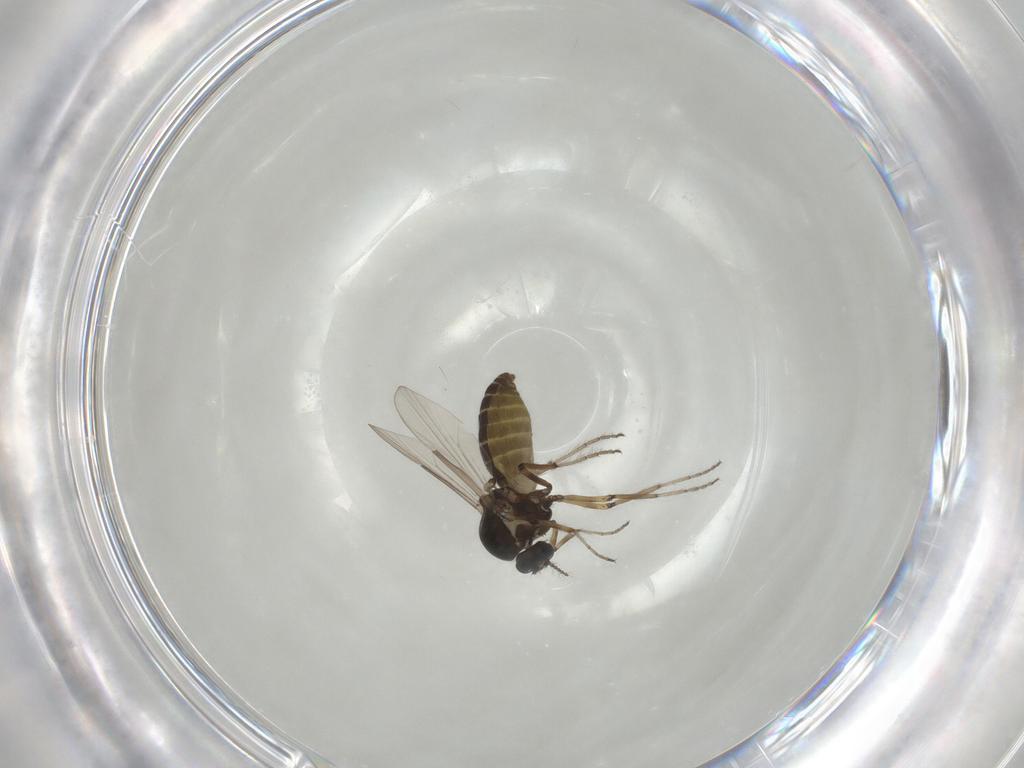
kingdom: Animalia
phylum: Arthropoda
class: Insecta
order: Diptera
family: Ceratopogonidae
